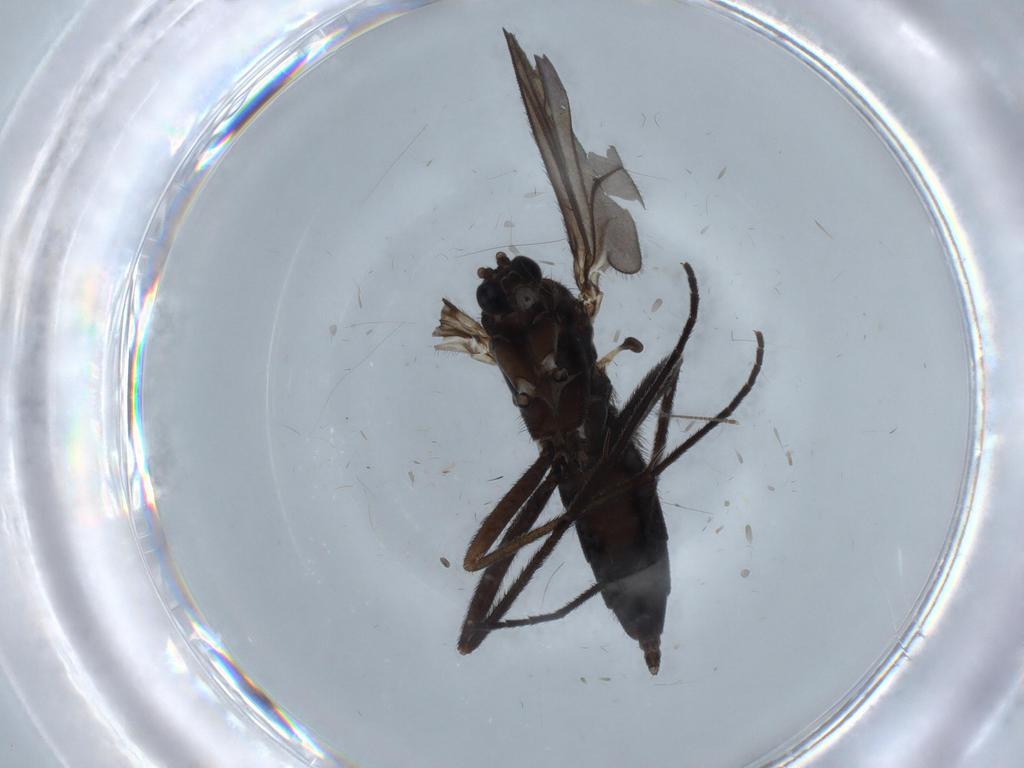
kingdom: Animalia
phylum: Arthropoda
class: Insecta
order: Diptera
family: Sciaridae
